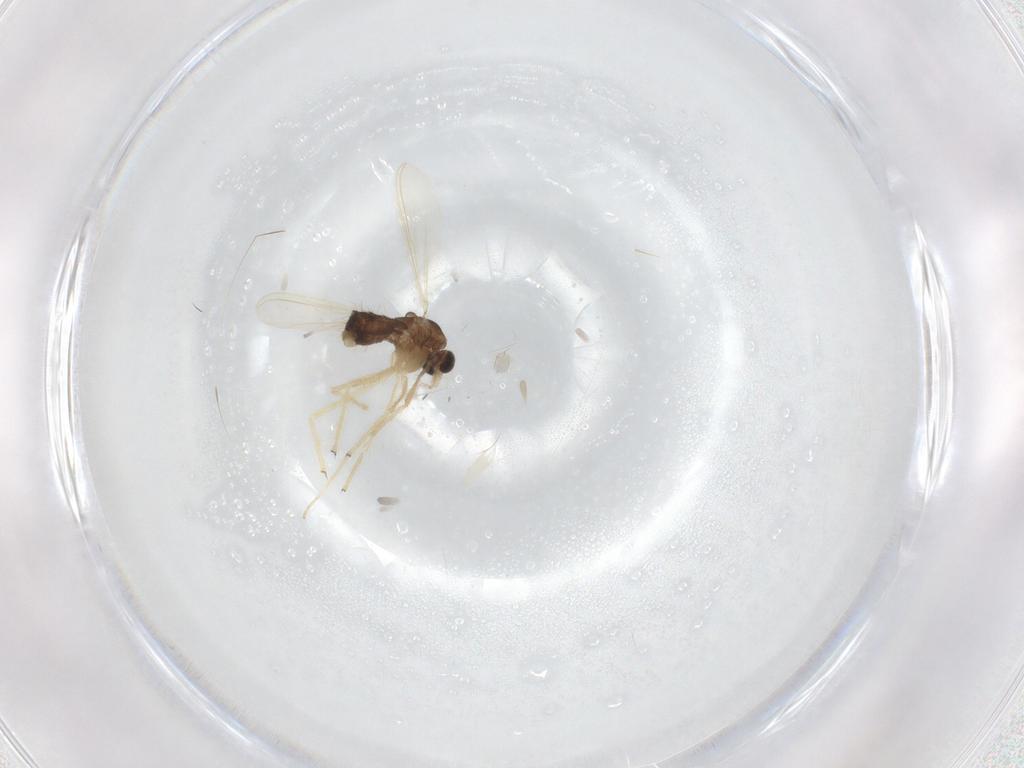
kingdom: Animalia
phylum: Arthropoda
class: Insecta
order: Diptera
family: Chironomidae
